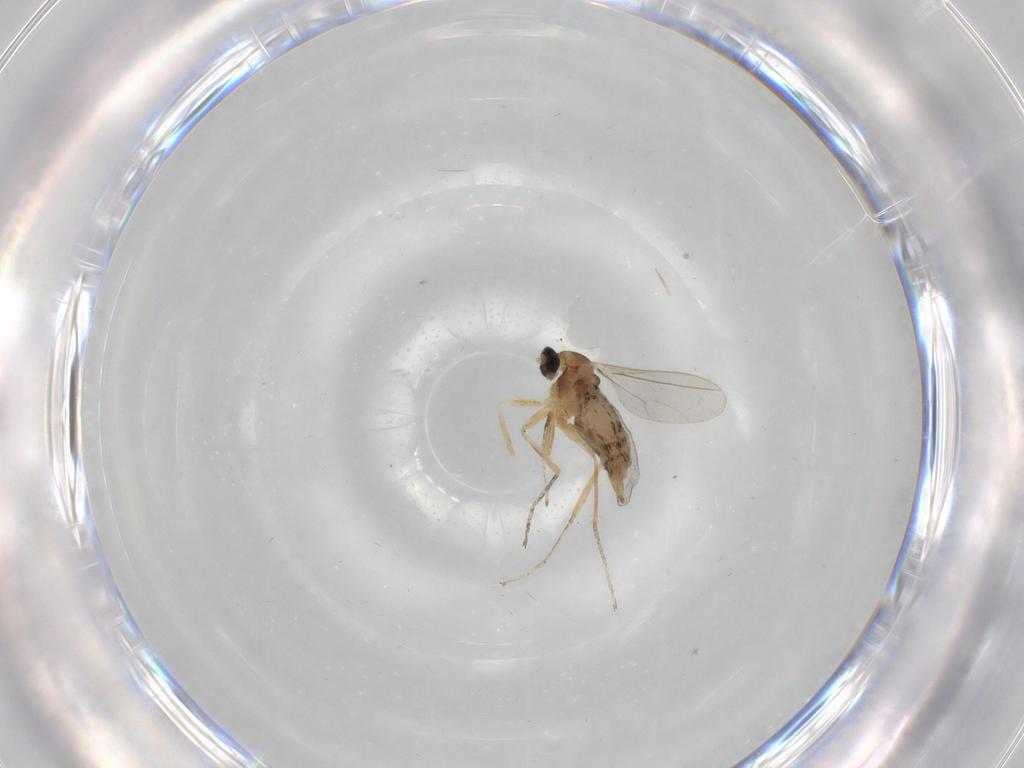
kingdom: Animalia
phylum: Arthropoda
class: Insecta
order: Diptera
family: Cecidomyiidae
